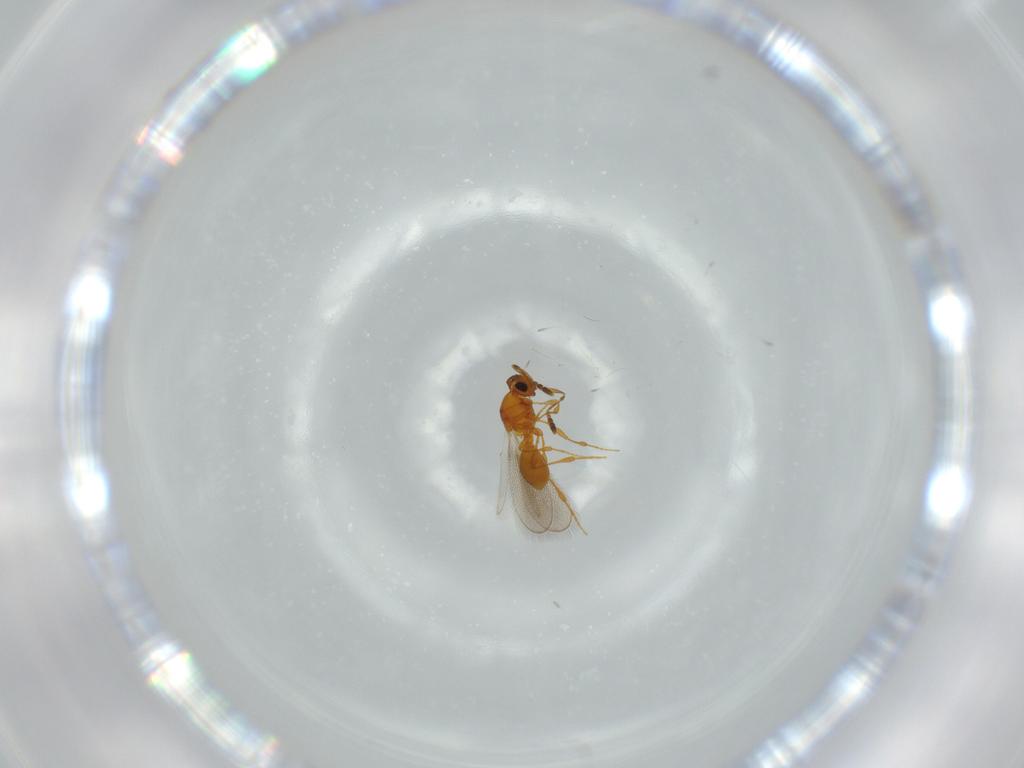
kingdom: Animalia
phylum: Arthropoda
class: Insecta
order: Hymenoptera
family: Platygastridae
